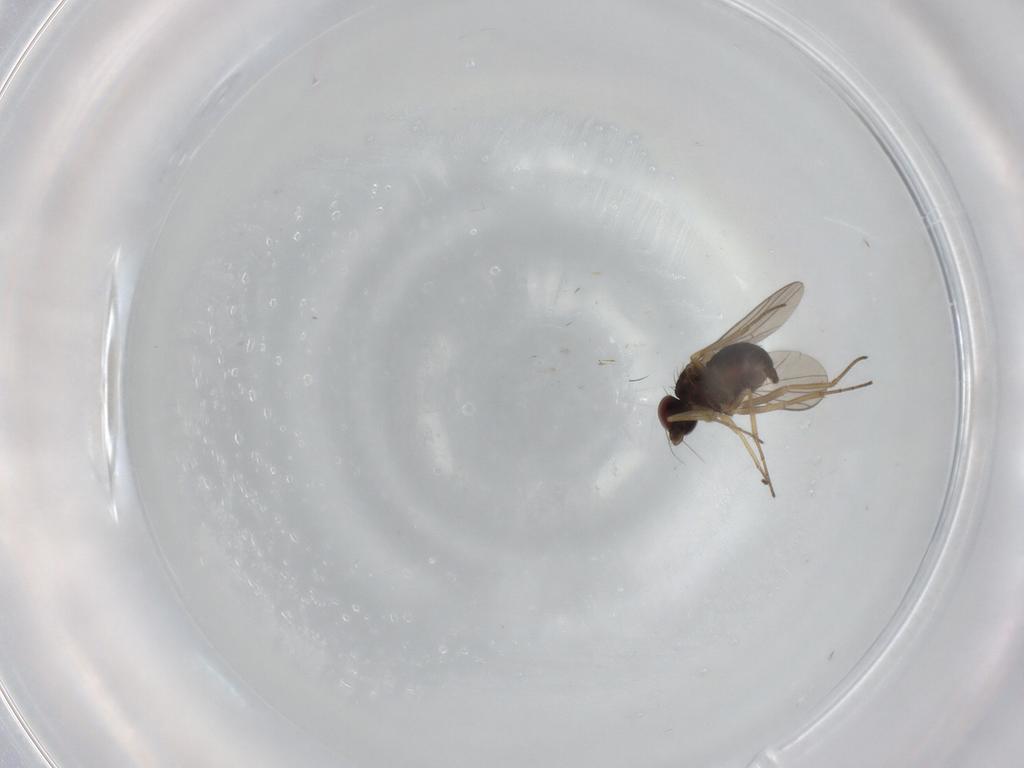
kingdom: Animalia
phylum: Arthropoda
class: Insecta
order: Diptera
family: Dolichopodidae
